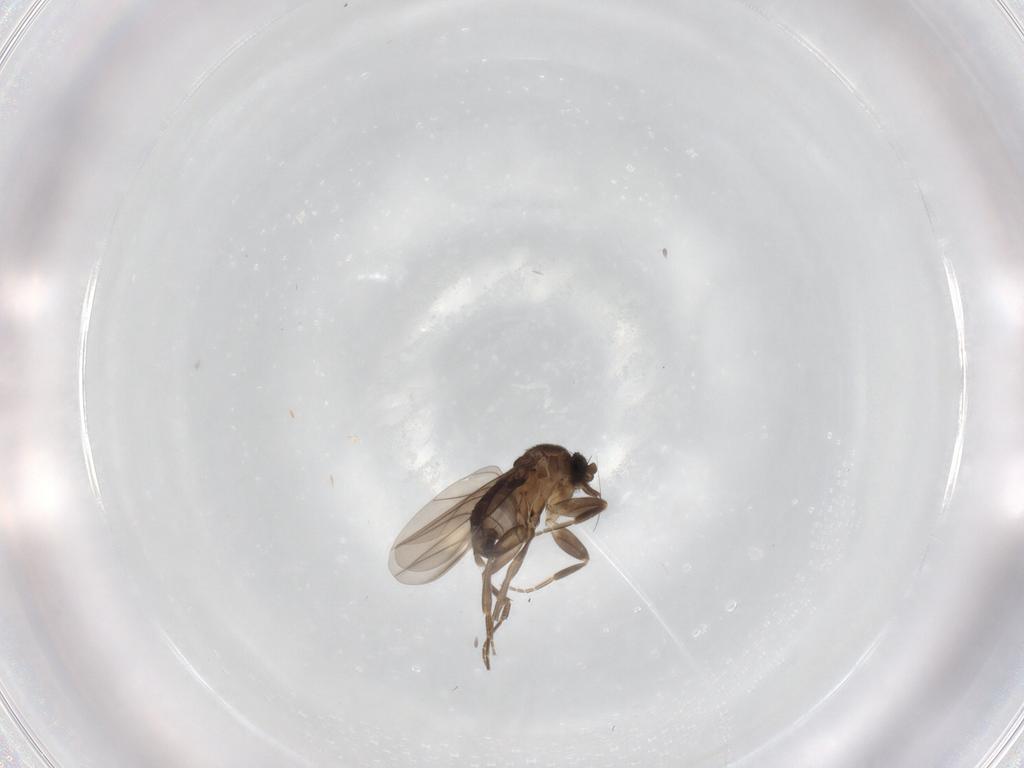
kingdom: Animalia
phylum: Arthropoda
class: Insecta
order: Diptera
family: Phoridae
